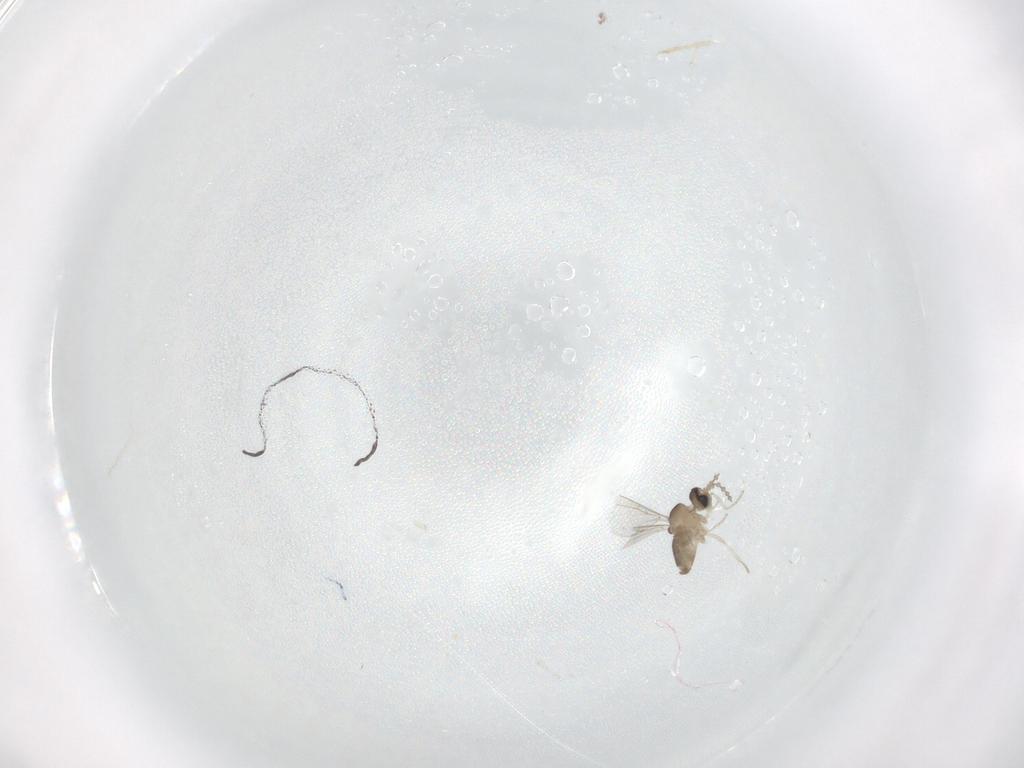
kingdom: Animalia
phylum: Arthropoda
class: Insecta
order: Diptera
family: Cecidomyiidae
